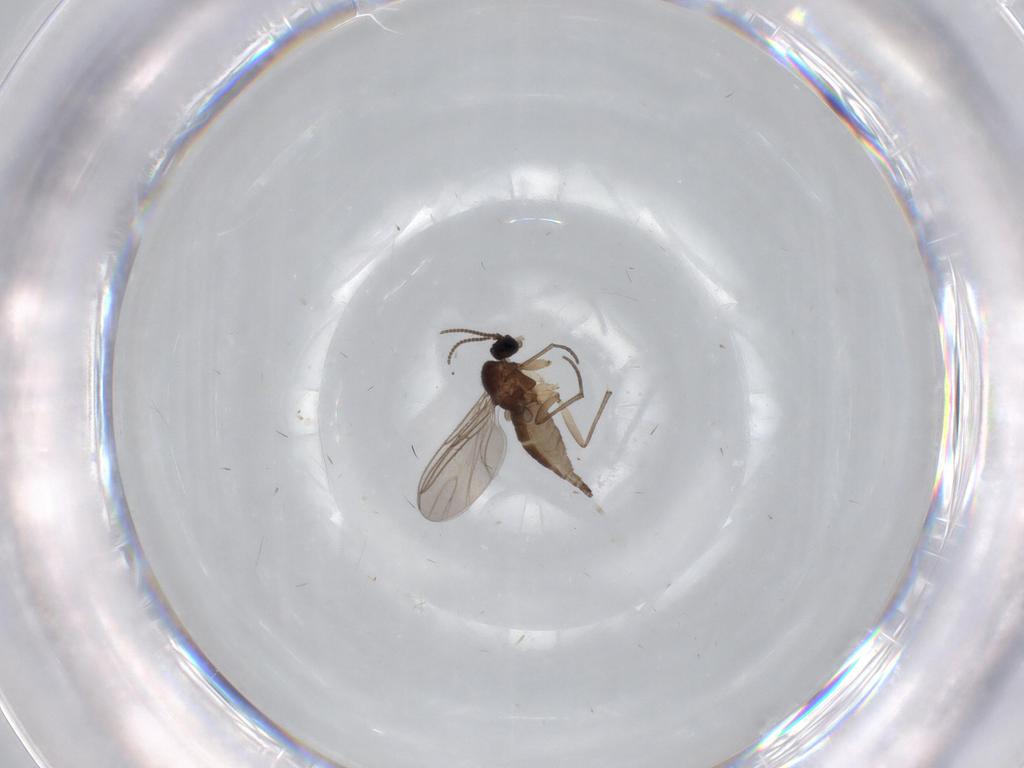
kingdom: Animalia
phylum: Arthropoda
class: Insecta
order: Diptera
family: Sciaridae
